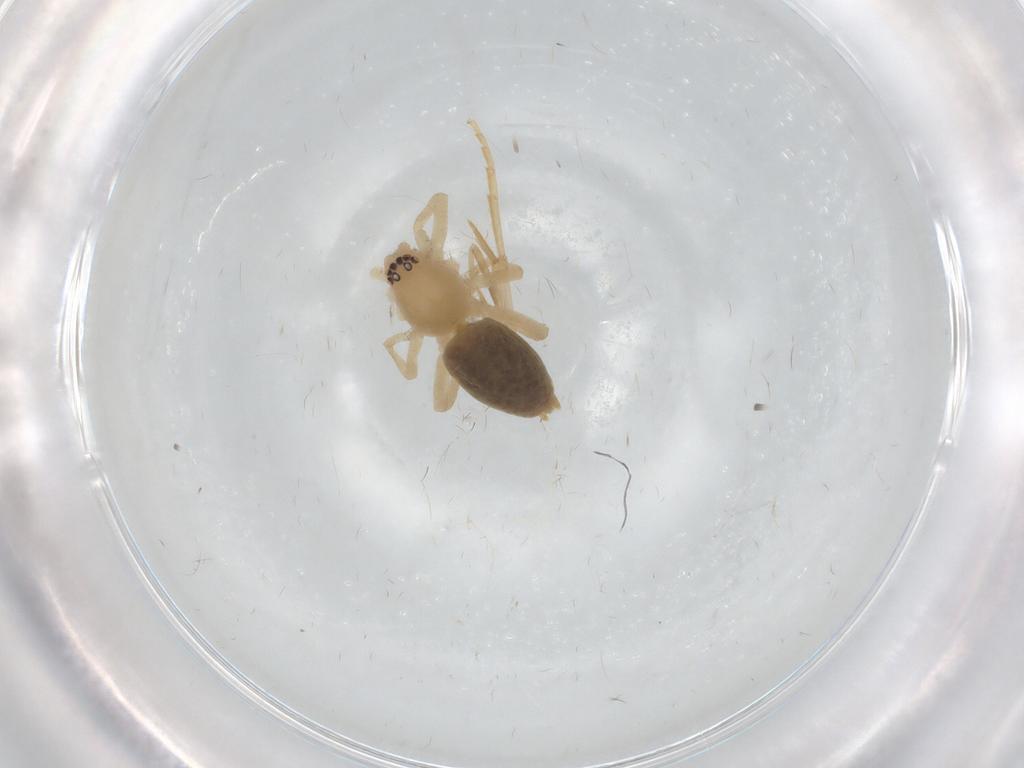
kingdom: Animalia
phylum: Arthropoda
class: Arachnida
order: Araneae
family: Clubionidae
